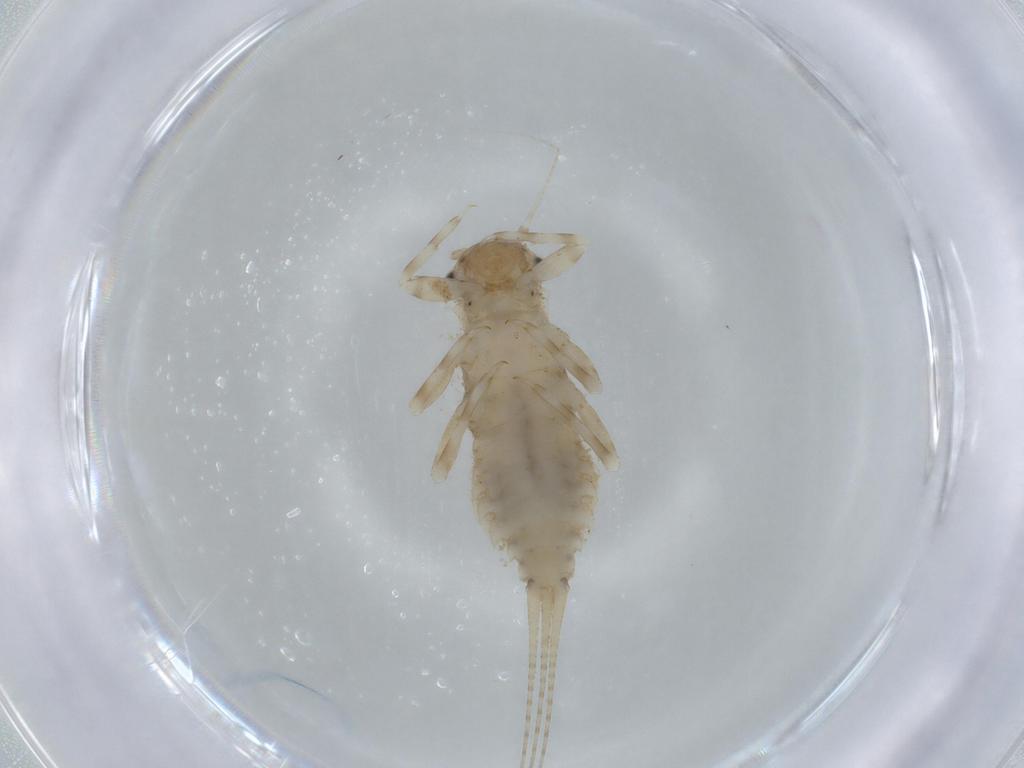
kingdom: Animalia
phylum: Arthropoda
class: Insecta
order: Ephemeroptera
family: Caenidae
